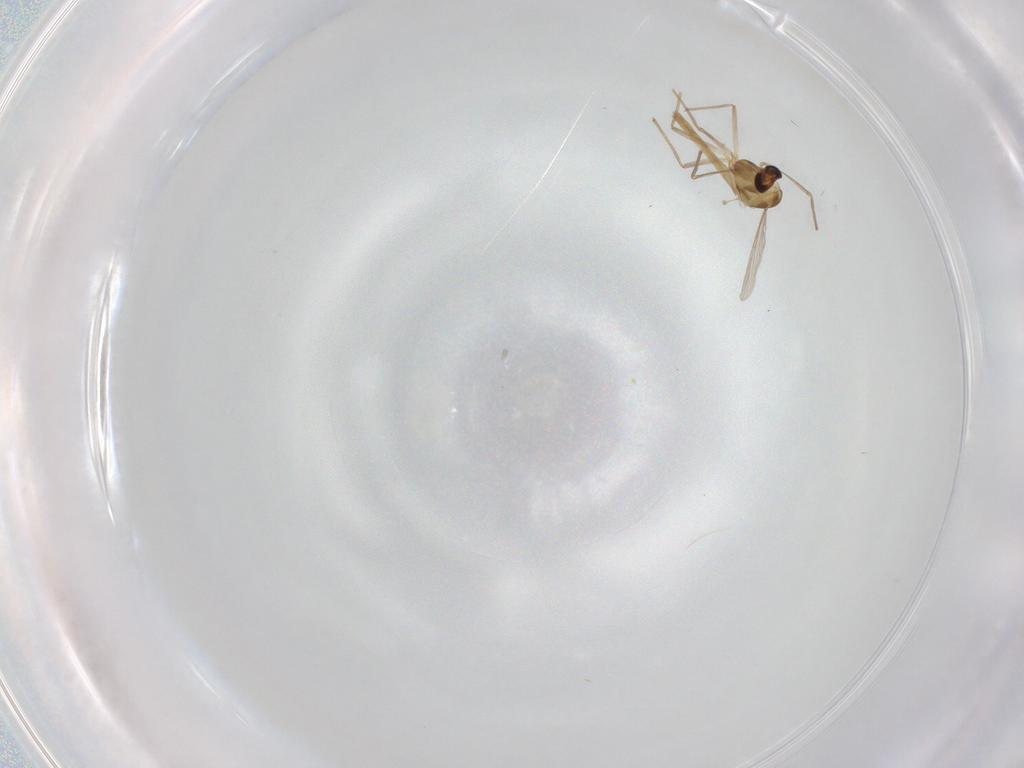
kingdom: Animalia
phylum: Arthropoda
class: Insecta
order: Diptera
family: Chironomidae
